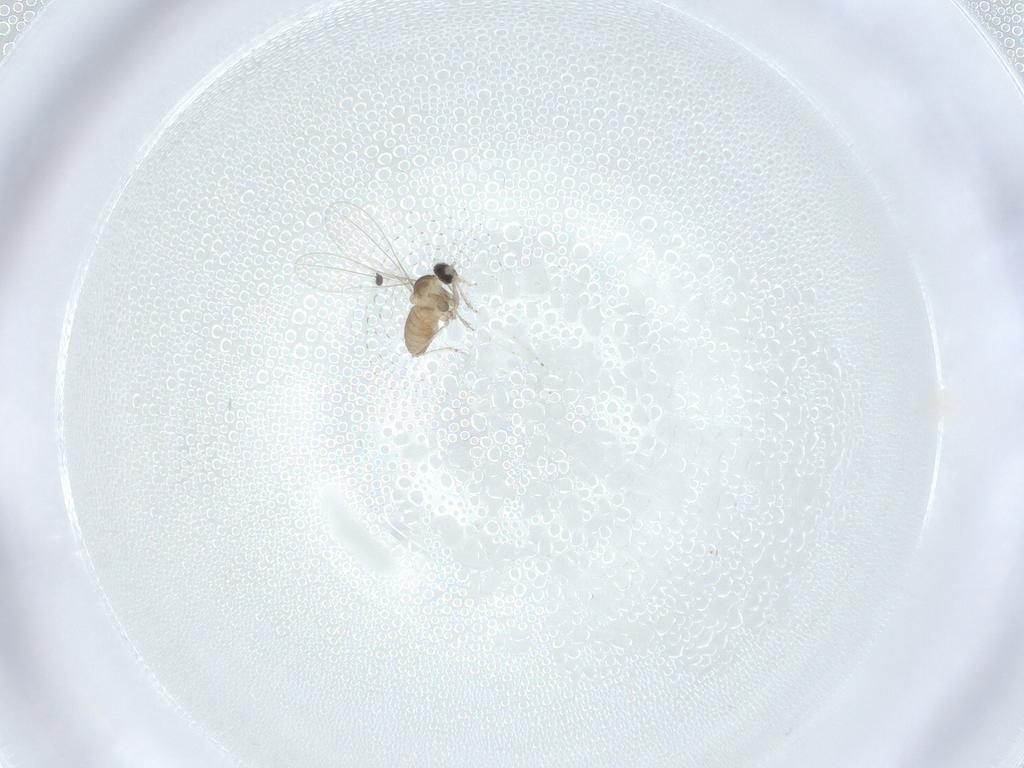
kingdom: Animalia
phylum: Arthropoda
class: Insecta
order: Diptera
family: Cecidomyiidae
